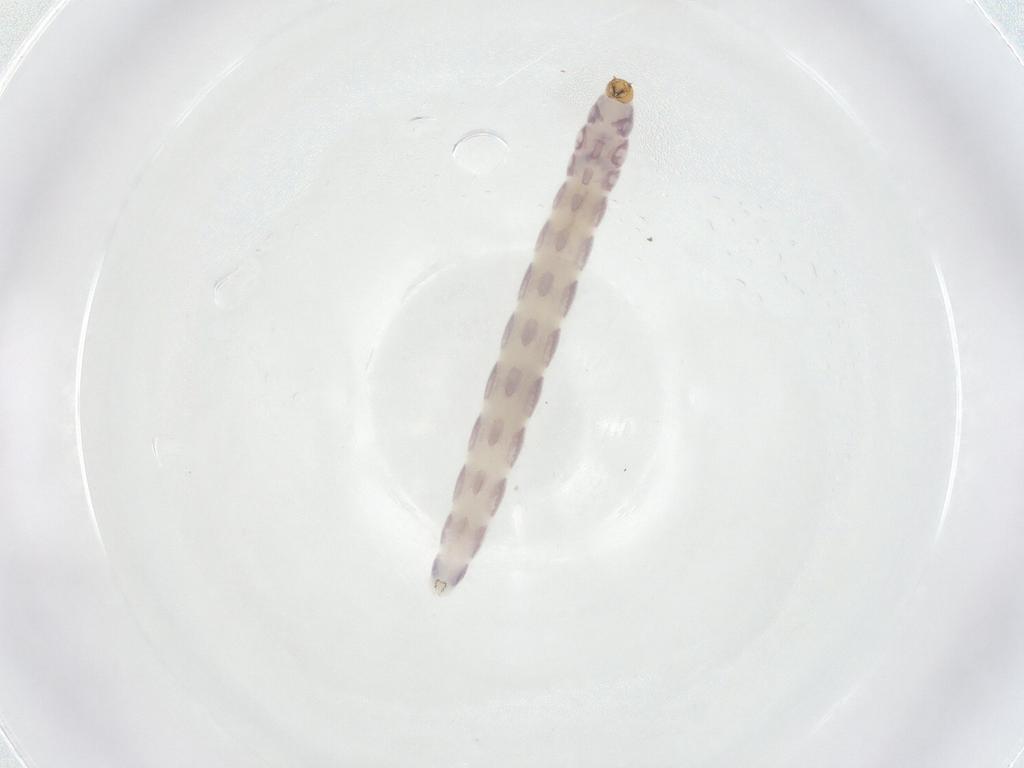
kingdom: Animalia
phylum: Arthropoda
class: Insecta
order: Diptera
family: Chironomidae
